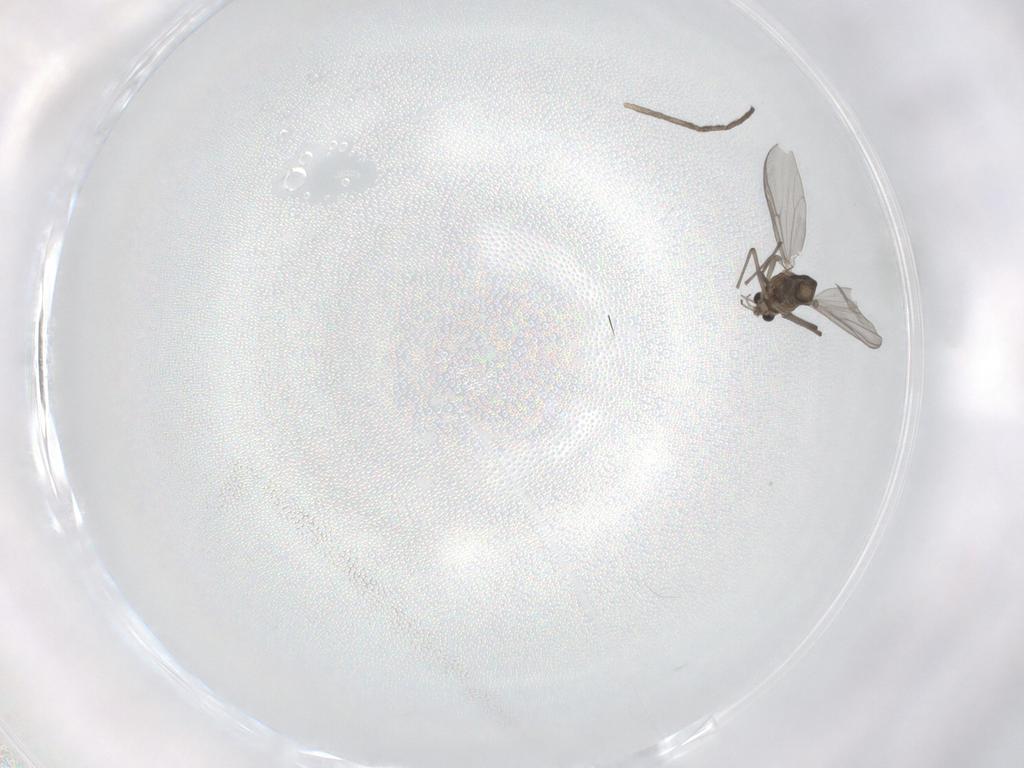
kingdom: Animalia
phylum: Arthropoda
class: Insecta
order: Diptera
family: Chironomidae
